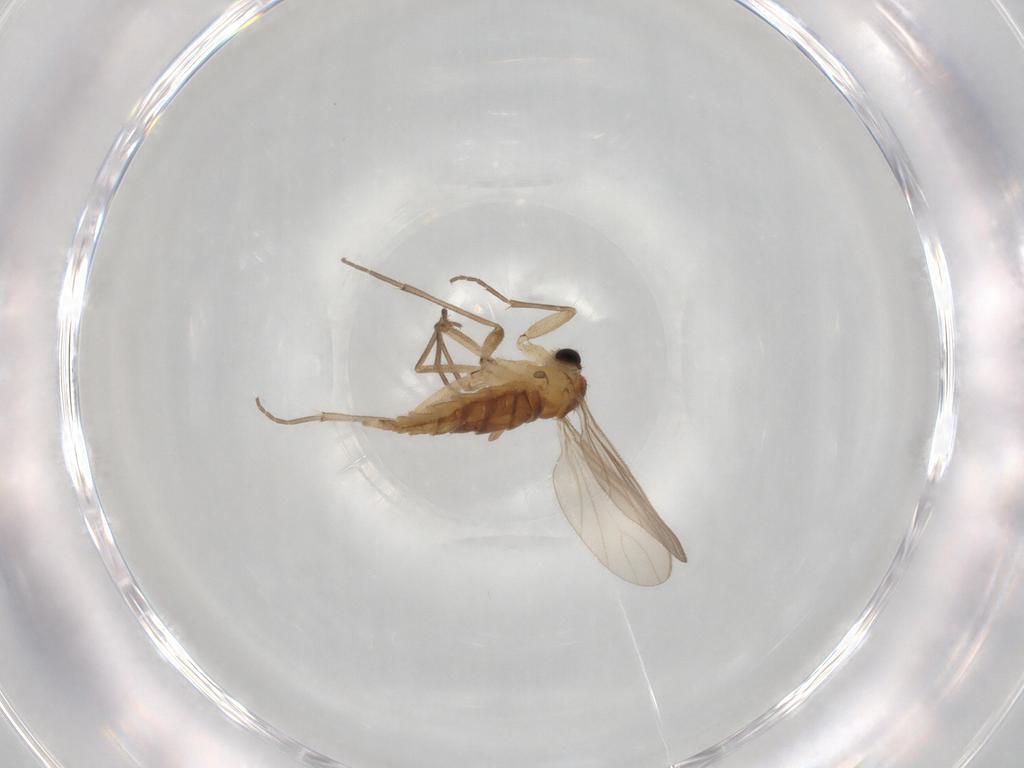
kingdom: Animalia
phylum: Arthropoda
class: Insecta
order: Diptera
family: Sciaridae
